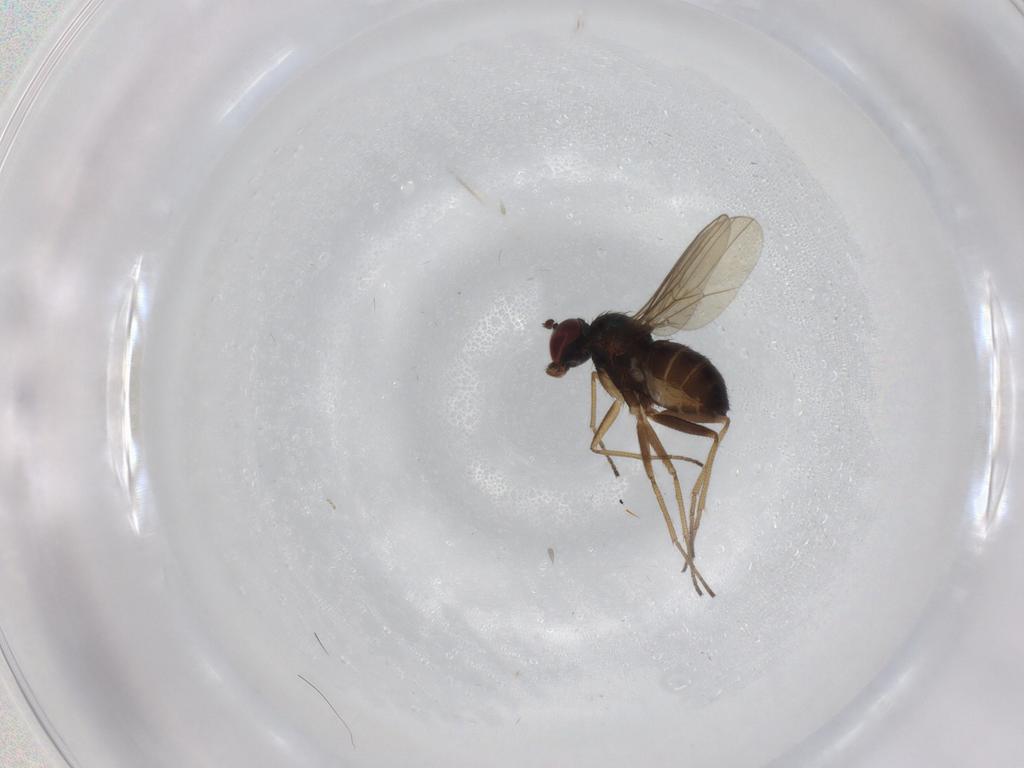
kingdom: Animalia
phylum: Arthropoda
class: Insecta
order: Diptera
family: Dolichopodidae
